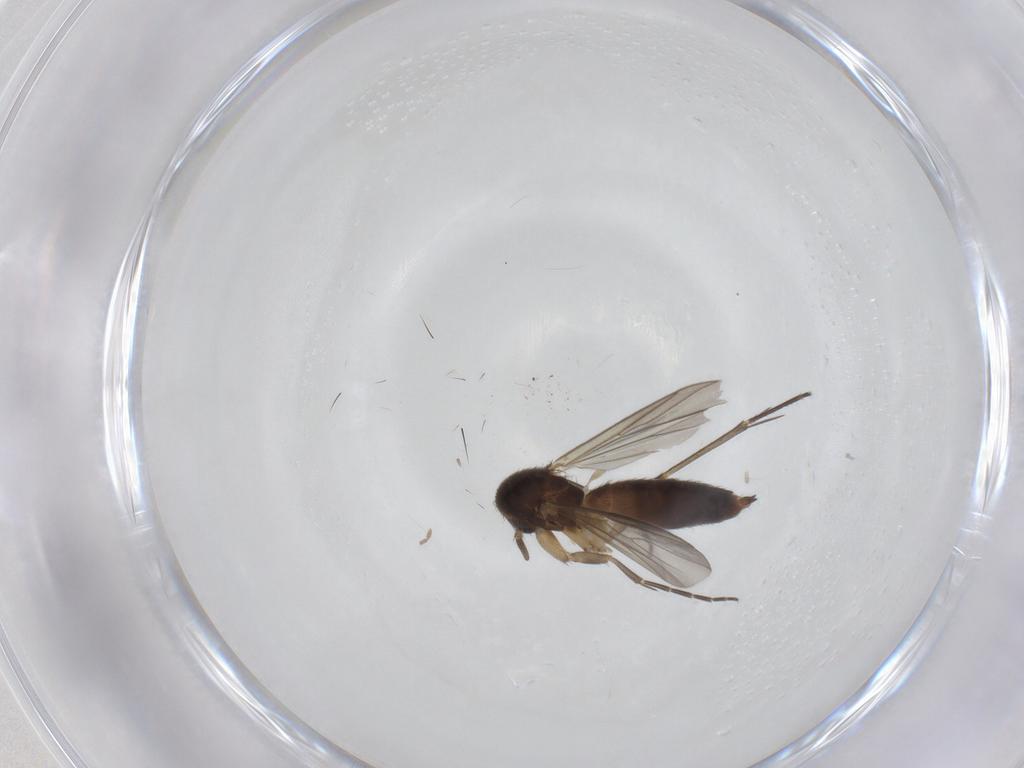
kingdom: Animalia
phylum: Arthropoda
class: Insecta
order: Diptera
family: Mycetophilidae
